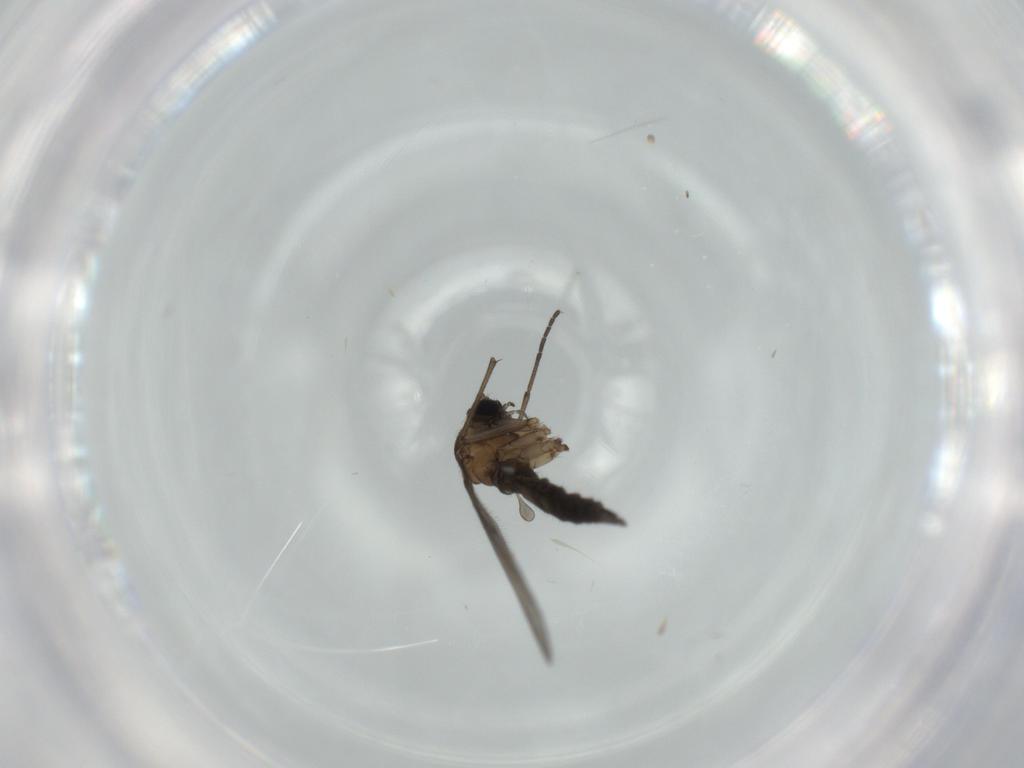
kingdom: Animalia
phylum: Arthropoda
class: Insecta
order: Diptera
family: Sciaridae
